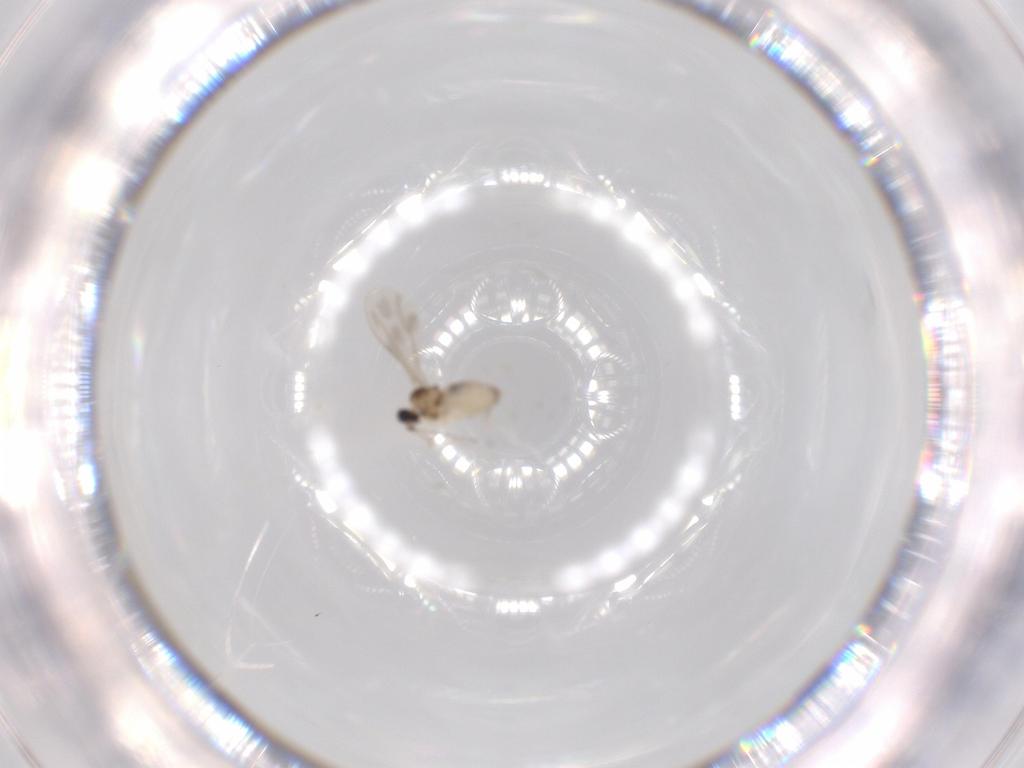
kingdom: Animalia
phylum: Arthropoda
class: Insecta
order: Diptera
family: Cecidomyiidae
